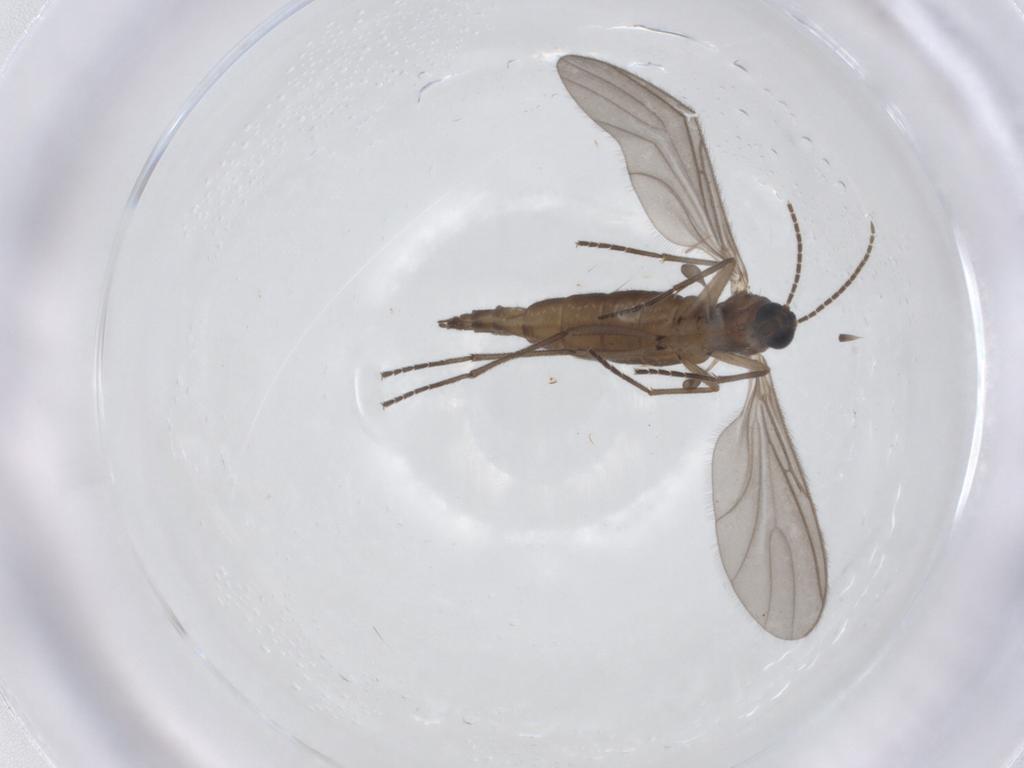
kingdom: Animalia
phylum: Arthropoda
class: Insecta
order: Diptera
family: Sciaridae
